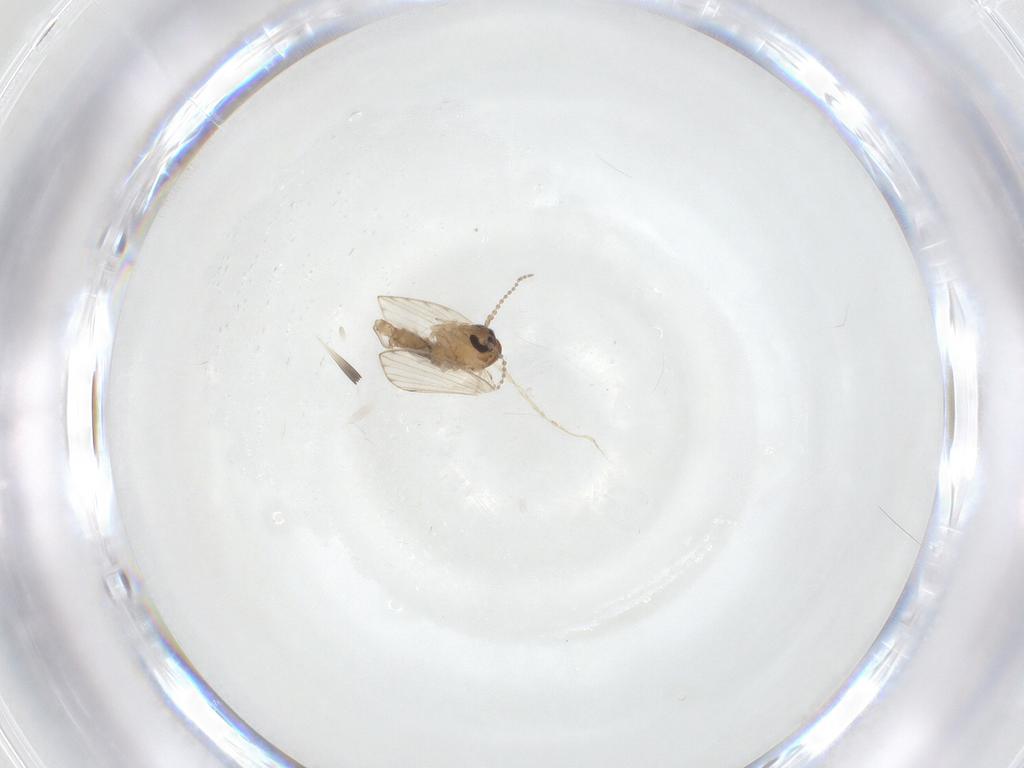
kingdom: Animalia
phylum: Arthropoda
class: Insecta
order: Diptera
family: Psychodidae
